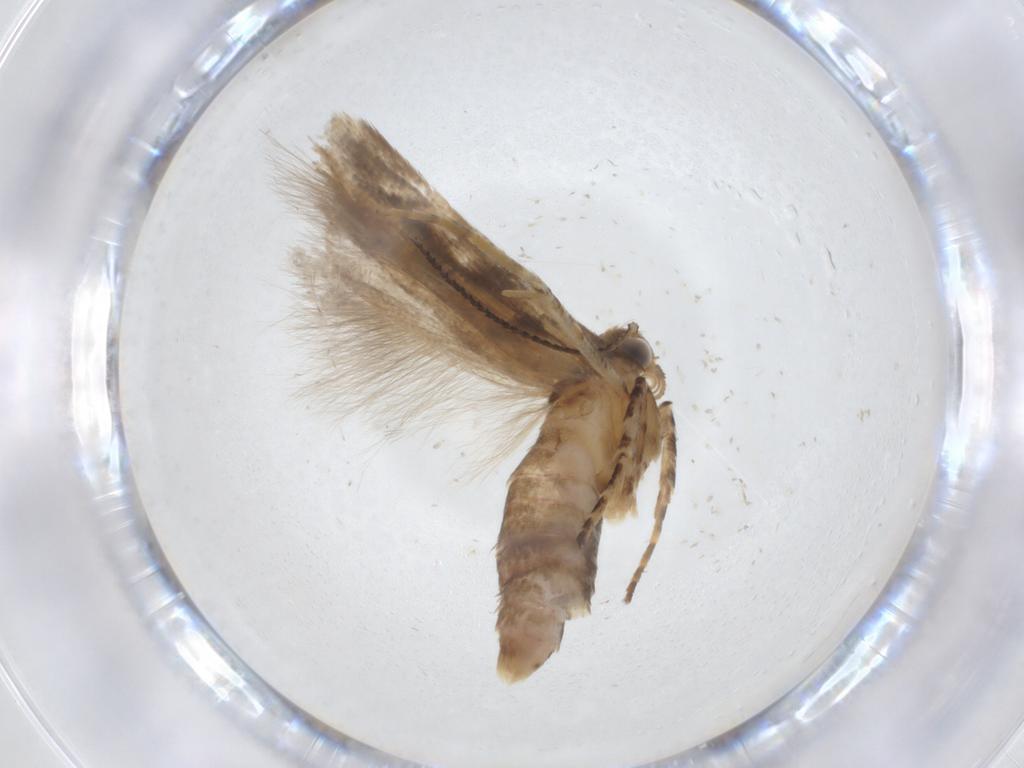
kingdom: Animalia
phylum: Arthropoda
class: Insecta
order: Lepidoptera
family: Gelechiidae
